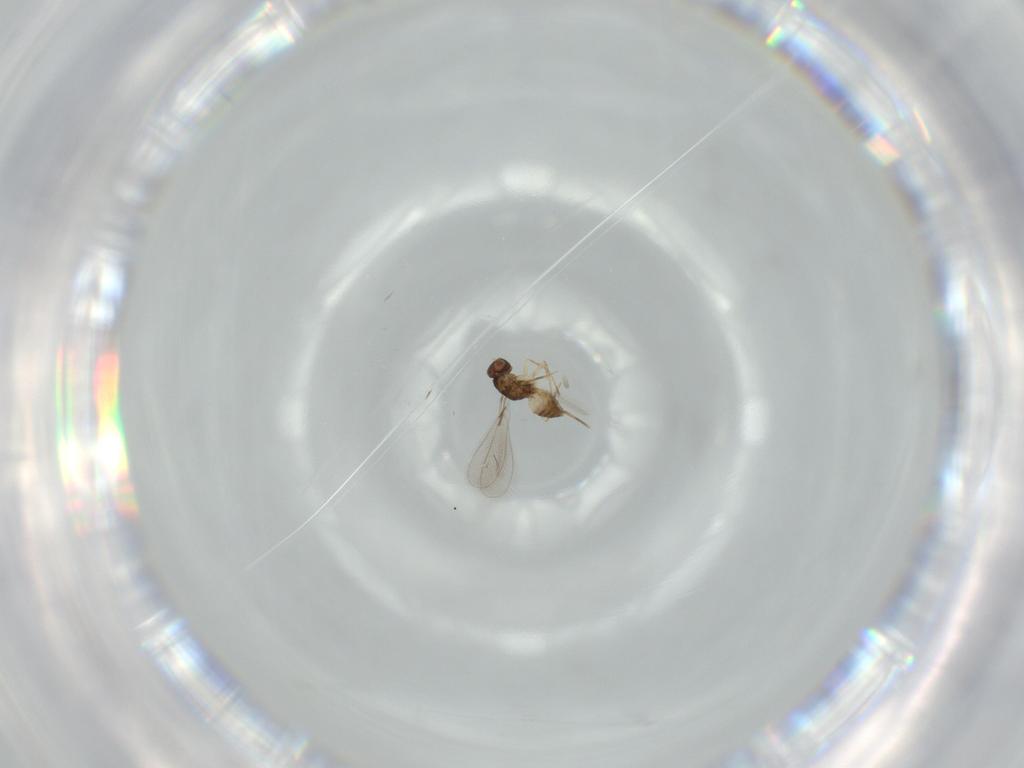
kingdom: Animalia
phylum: Arthropoda
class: Insecta
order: Hymenoptera
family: Mymaridae
